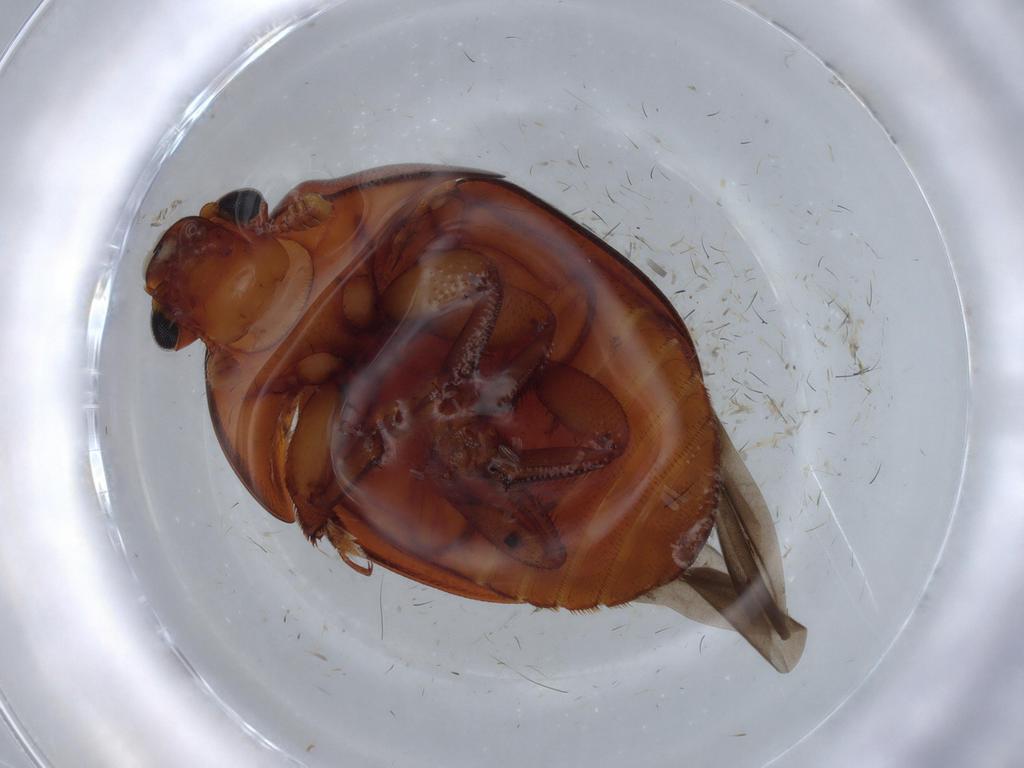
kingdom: Animalia
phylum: Arthropoda
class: Insecta
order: Coleoptera
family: Nitidulidae
